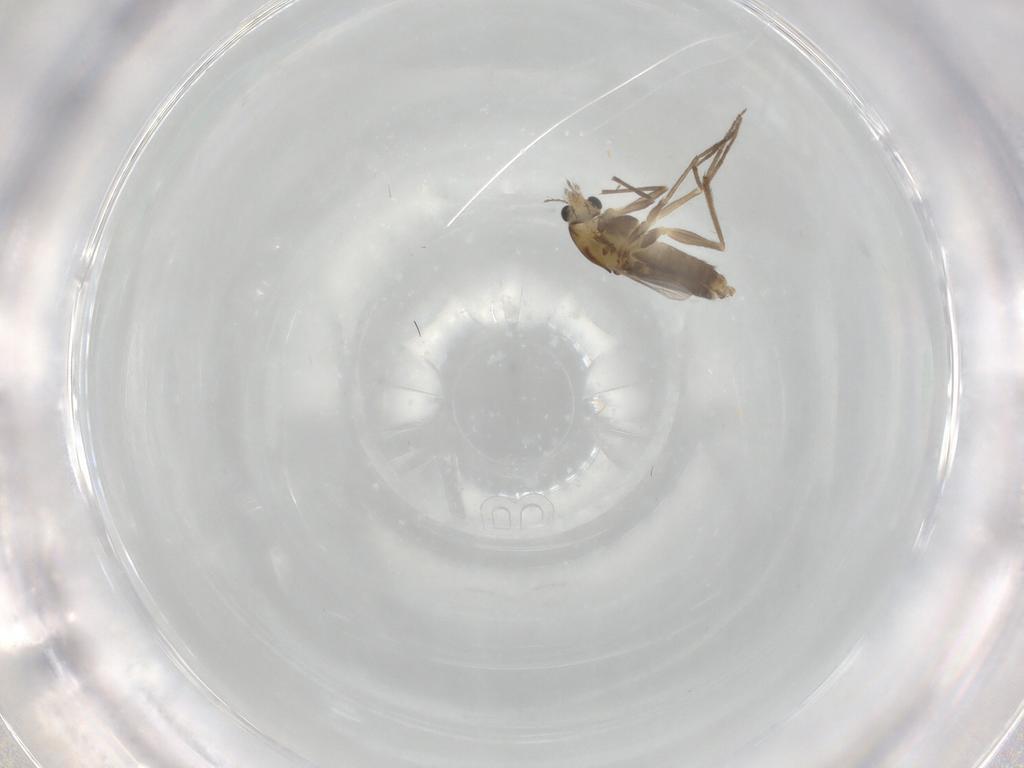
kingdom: Animalia
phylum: Arthropoda
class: Insecta
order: Diptera
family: Chironomidae
